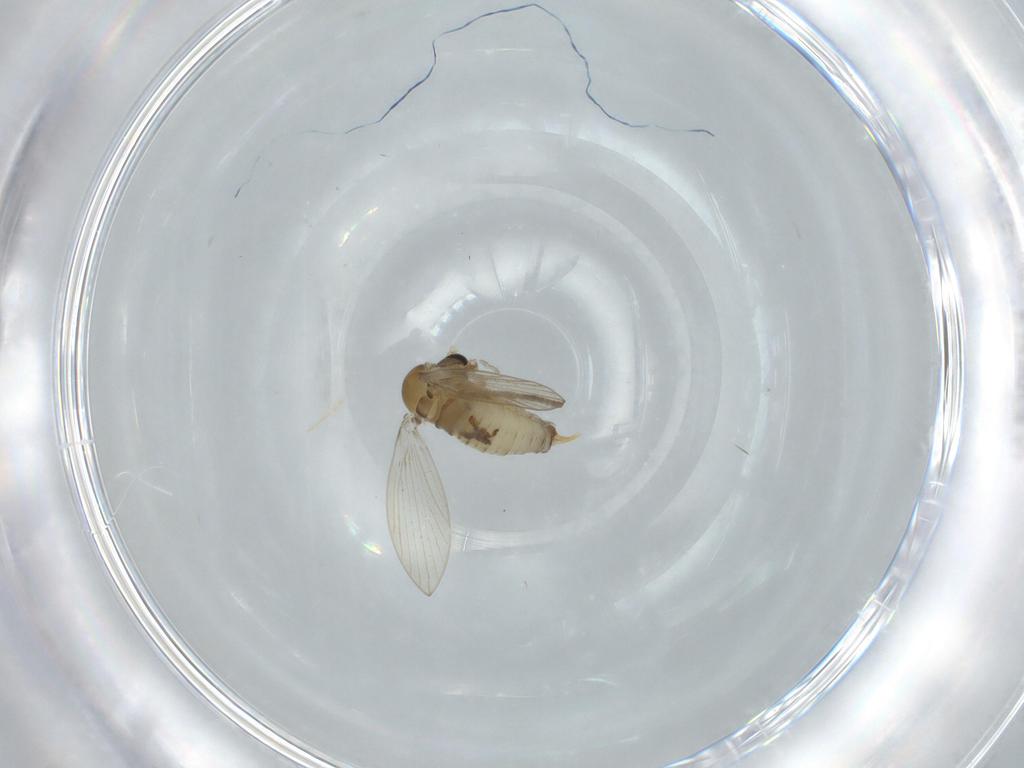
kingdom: Animalia
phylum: Arthropoda
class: Insecta
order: Diptera
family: Psychodidae
